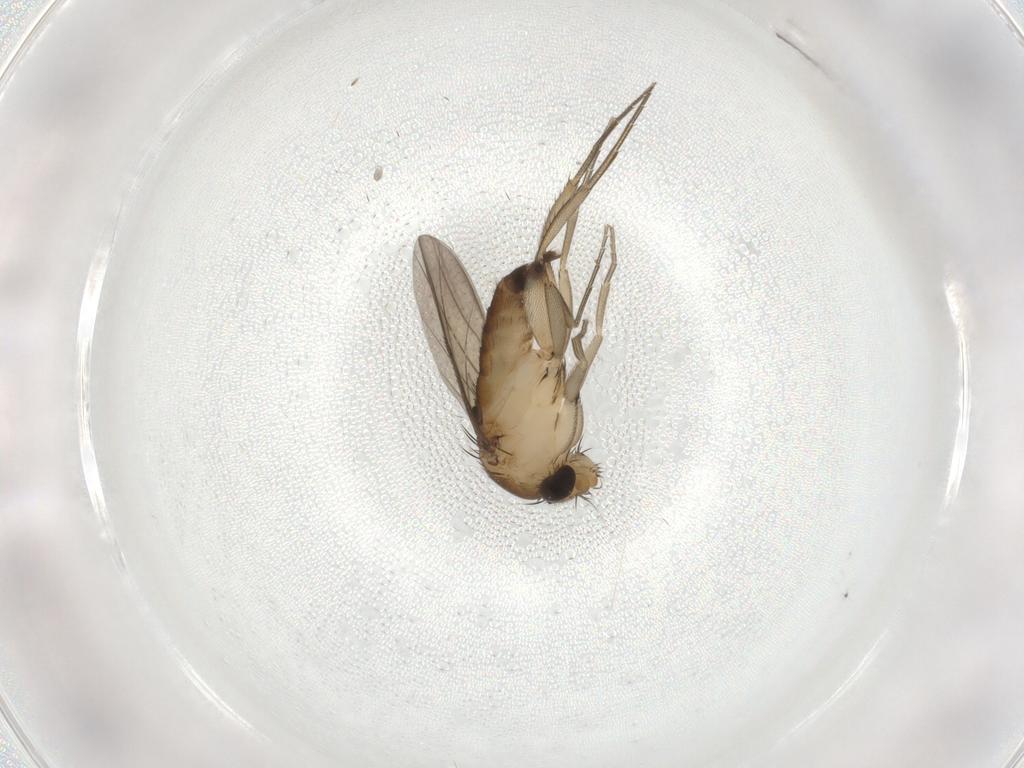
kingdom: Animalia
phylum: Arthropoda
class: Insecta
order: Diptera
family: Limoniidae
